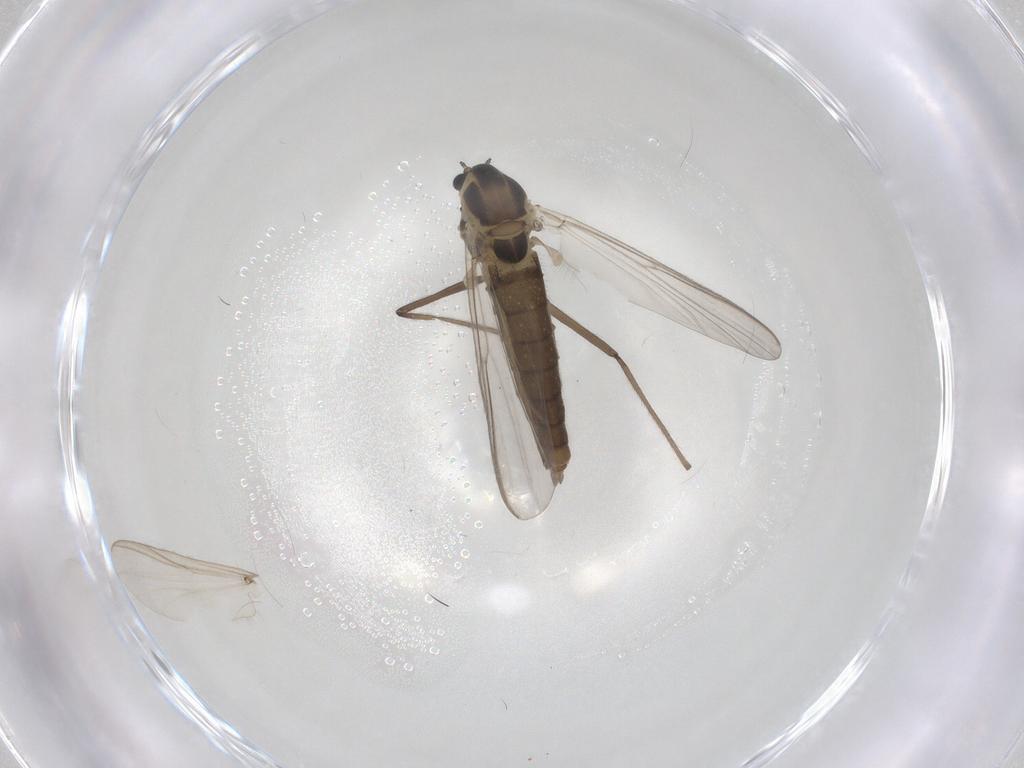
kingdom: Animalia
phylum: Arthropoda
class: Insecta
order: Diptera
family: Chironomidae
